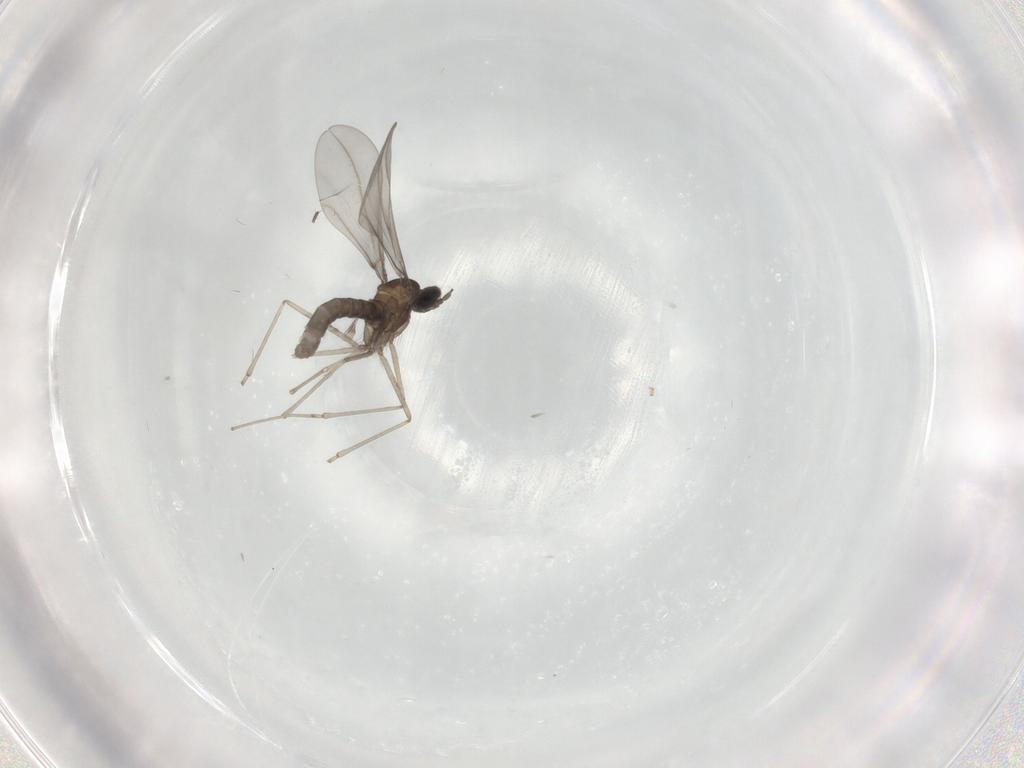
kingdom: Animalia
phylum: Arthropoda
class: Insecta
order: Diptera
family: Cecidomyiidae
